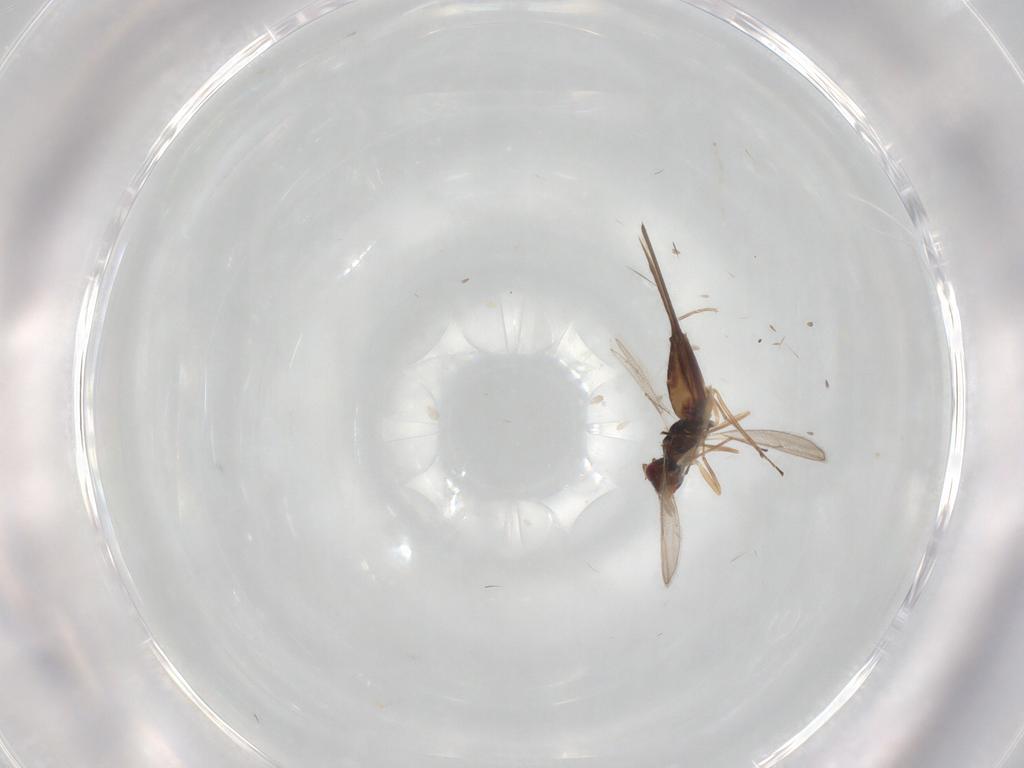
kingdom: Animalia
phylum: Arthropoda
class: Insecta
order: Hymenoptera
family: Eulophidae
